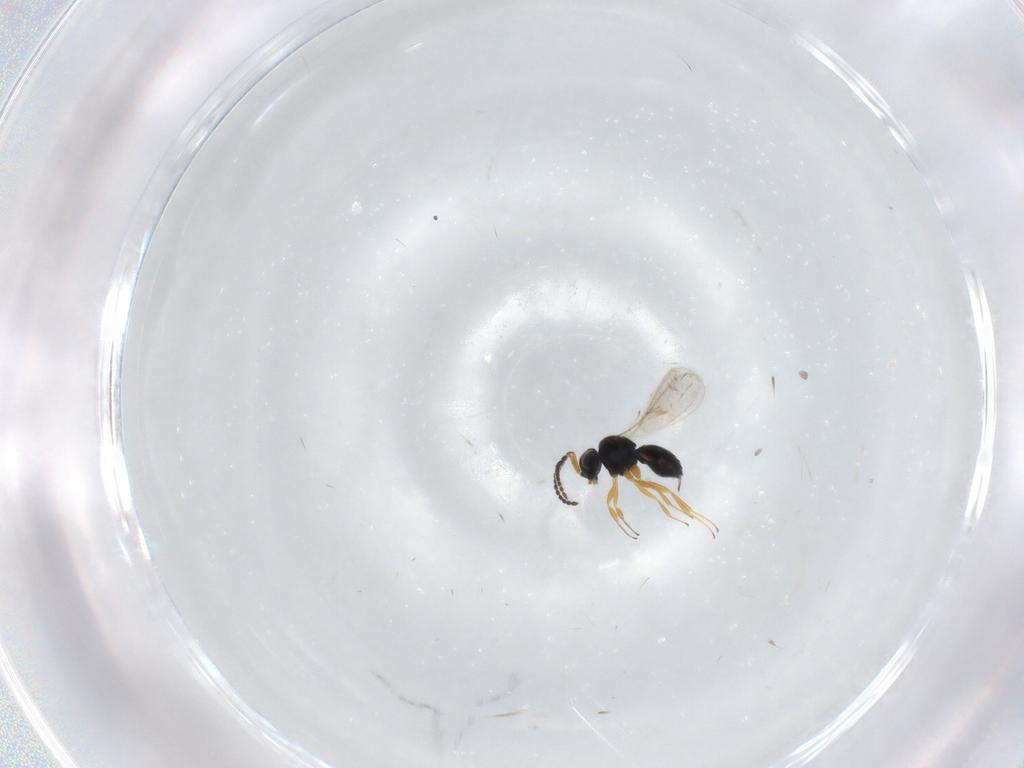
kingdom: Animalia
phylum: Arthropoda
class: Insecta
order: Hymenoptera
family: Scelionidae
